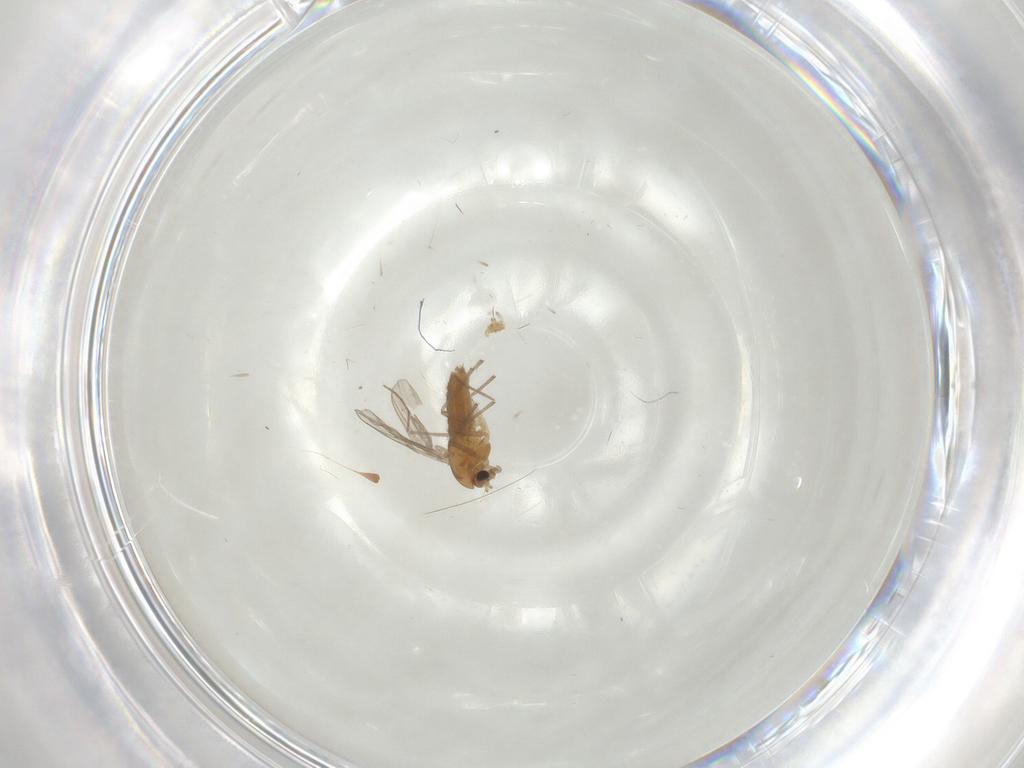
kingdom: Animalia
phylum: Arthropoda
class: Insecta
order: Diptera
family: Chironomidae
